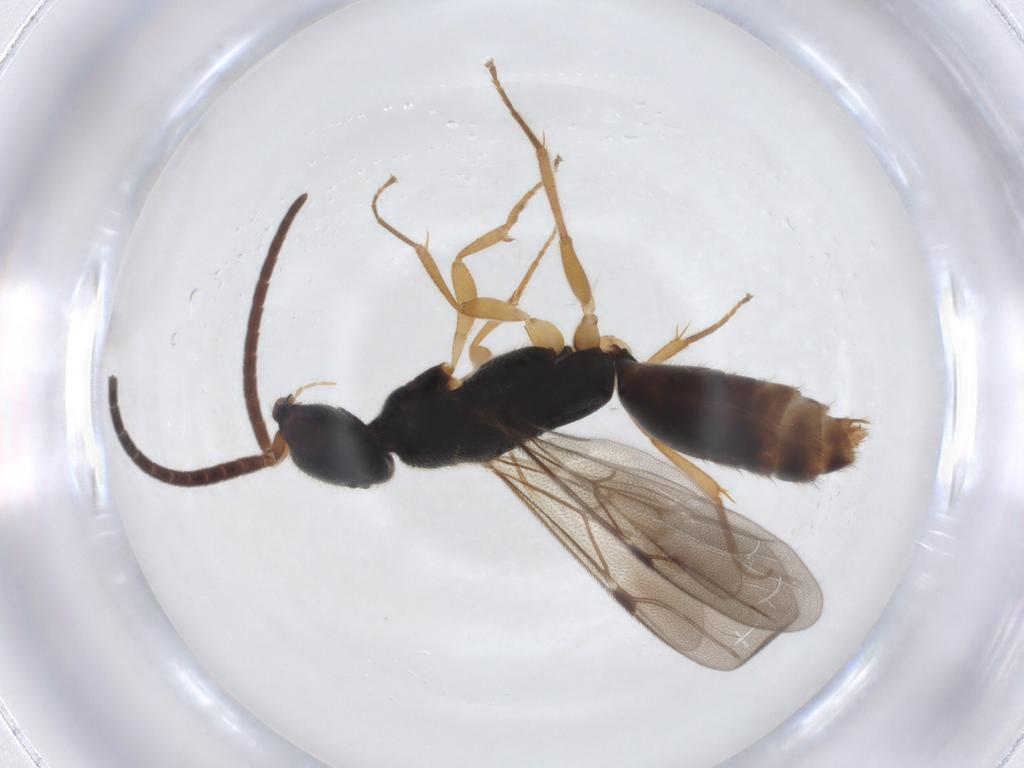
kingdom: Animalia
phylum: Arthropoda
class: Insecta
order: Hymenoptera
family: Bethylidae
